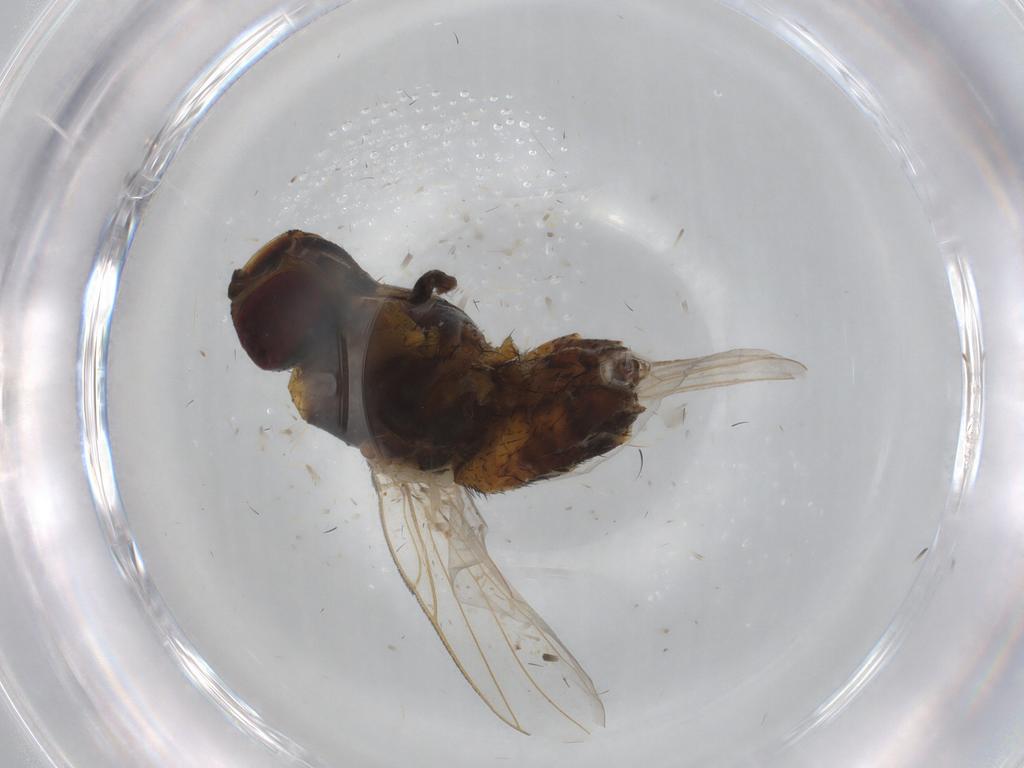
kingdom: Animalia
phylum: Arthropoda
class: Insecta
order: Diptera
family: Muscidae
